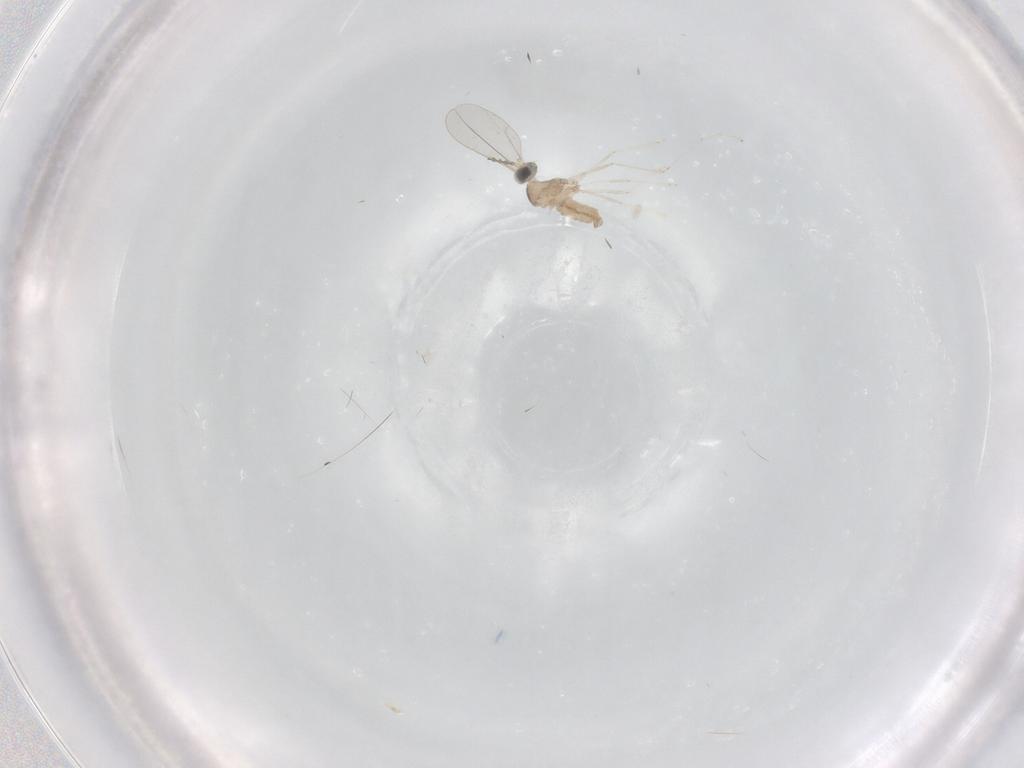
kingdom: Animalia
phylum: Arthropoda
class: Insecta
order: Diptera
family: Cecidomyiidae
